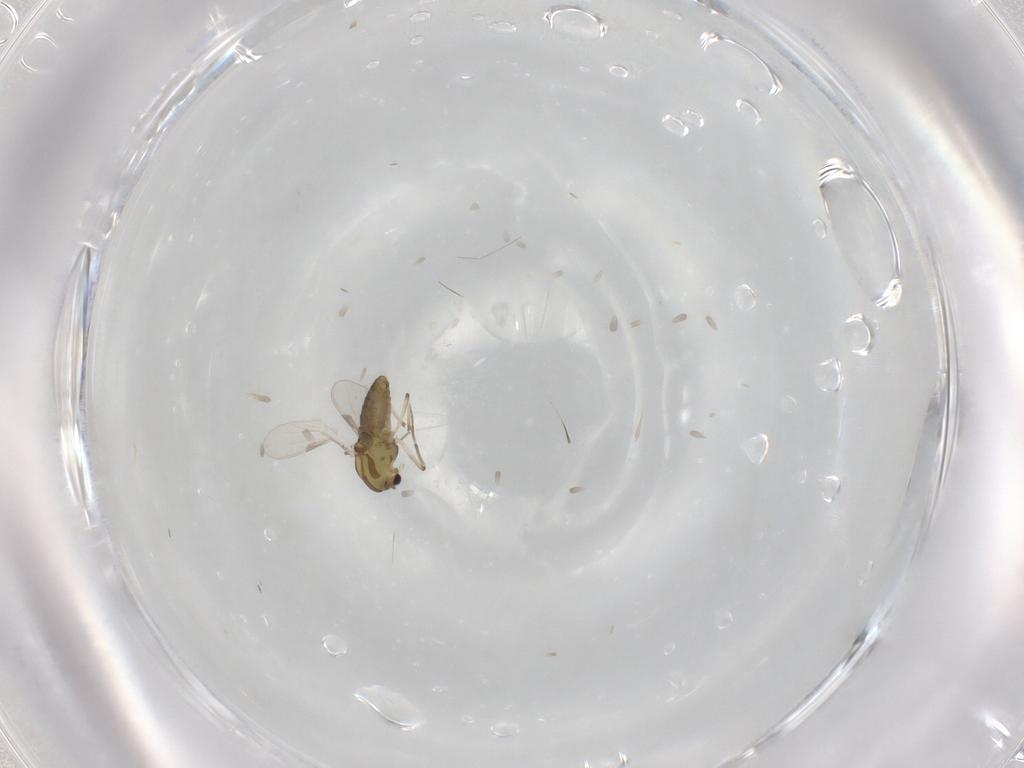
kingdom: Animalia
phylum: Arthropoda
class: Insecta
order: Diptera
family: Chironomidae
